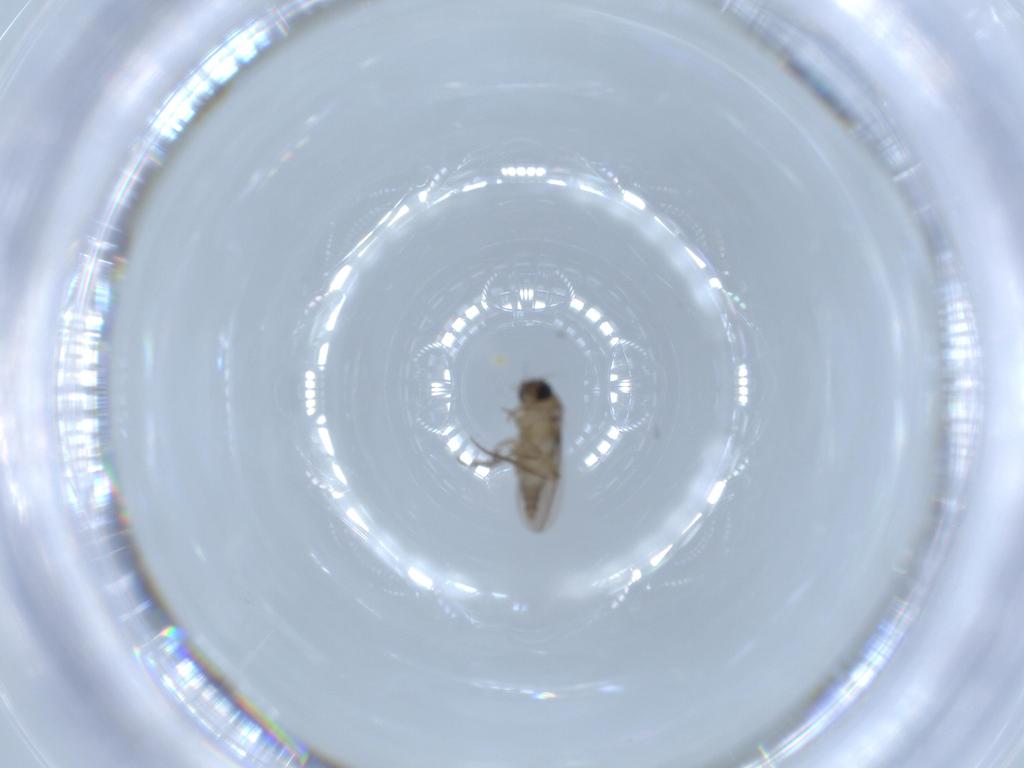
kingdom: Animalia
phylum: Arthropoda
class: Insecta
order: Diptera
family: Phoridae
